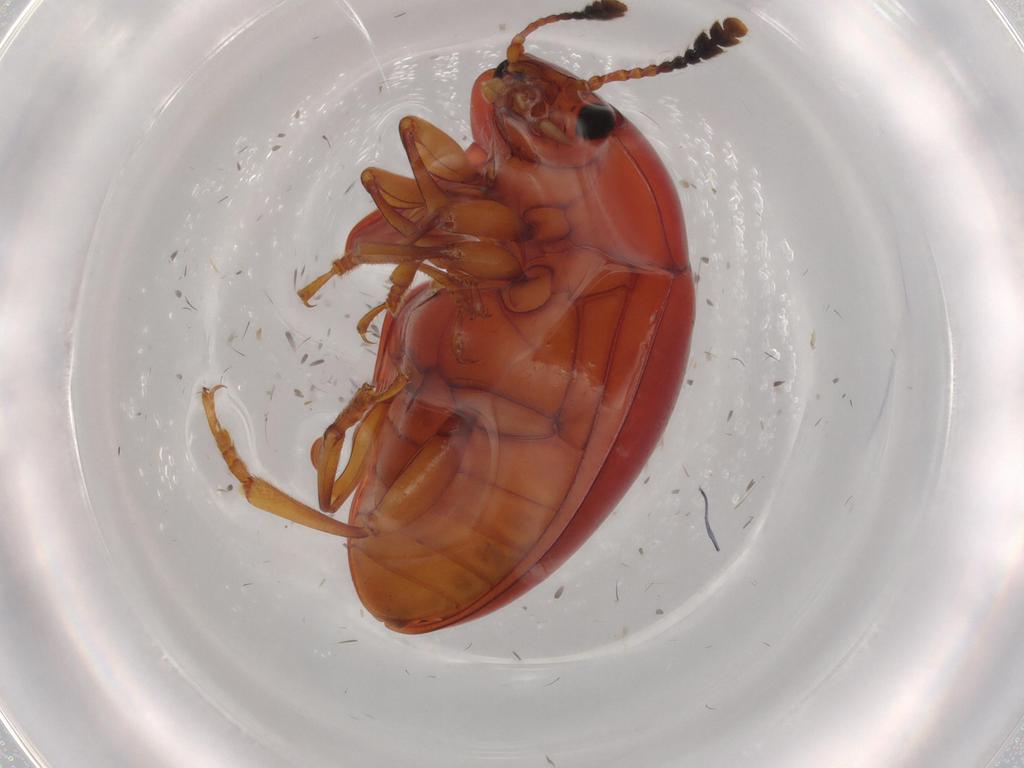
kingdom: Animalia
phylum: Arthropoda
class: Insecta
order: Coleoptera
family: Erotylidae
